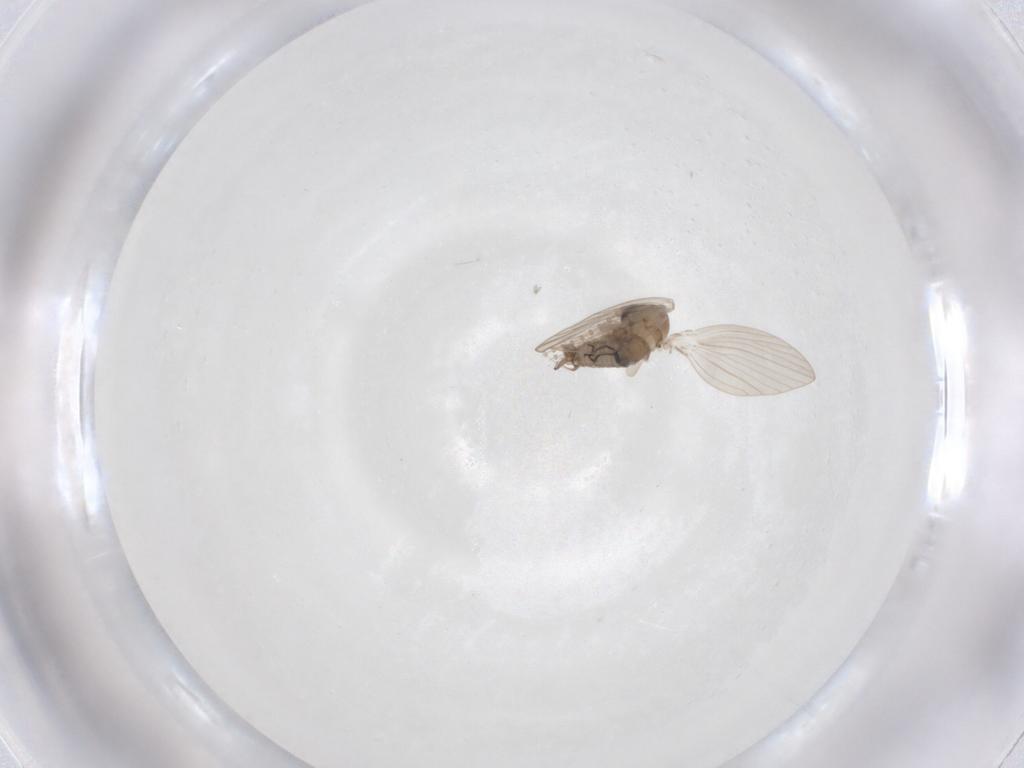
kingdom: Animalia
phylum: Arthropoda
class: Insecta
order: Diptera
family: Psychodidae
